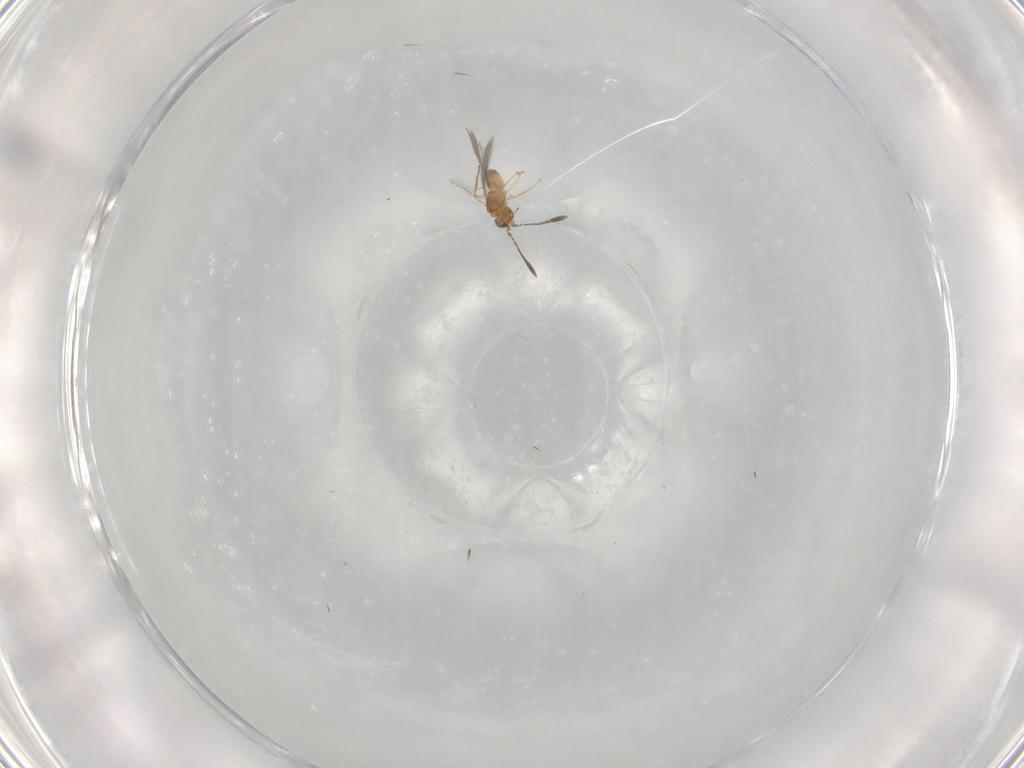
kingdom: Animalia
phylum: Arthropoda
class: Insecta
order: Hymenoptera
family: Mymaridae
